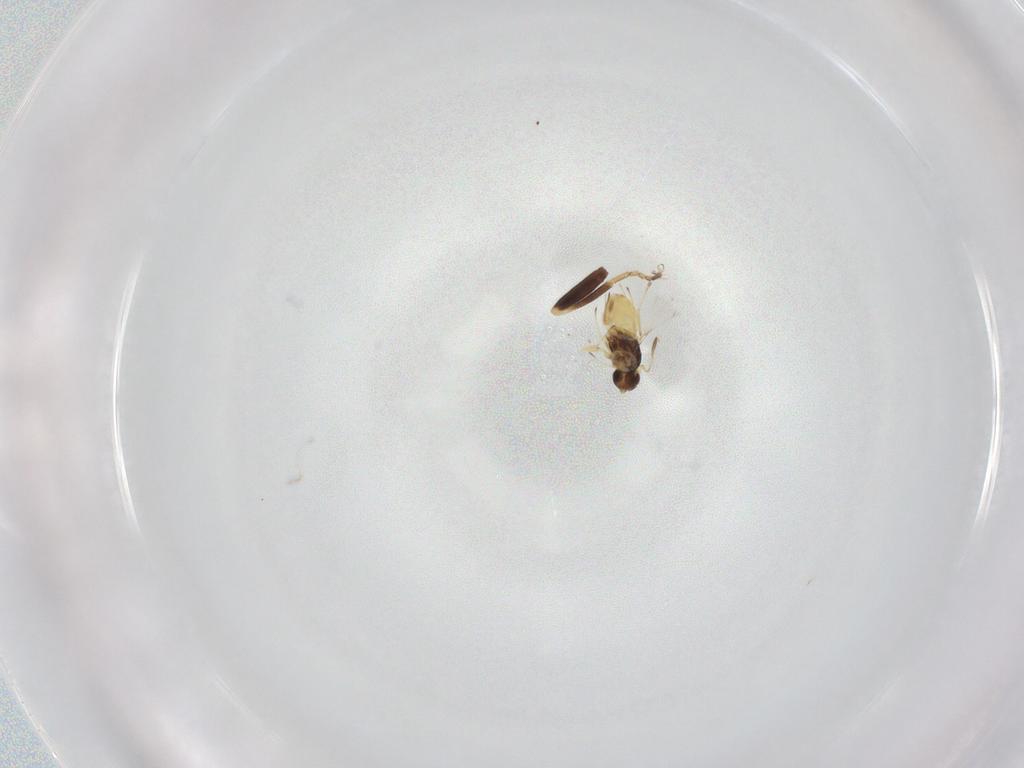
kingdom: Animalia
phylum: Arthropoda
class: Insecta
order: Hymenoptera
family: Mymaridae
